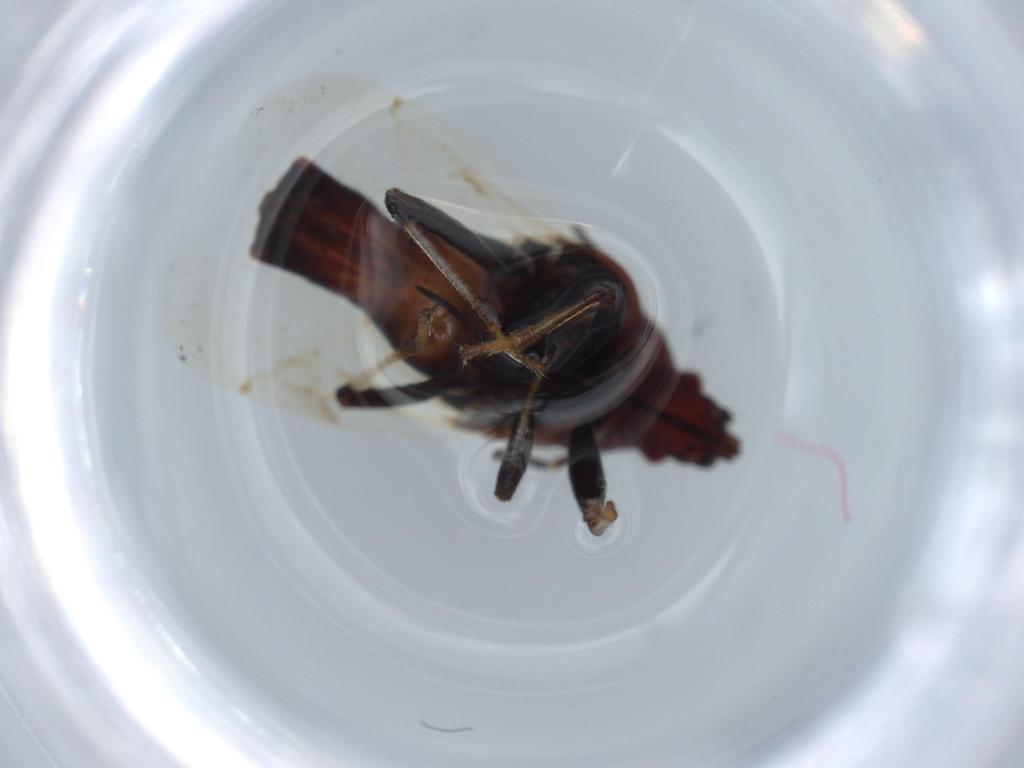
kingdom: Animalia
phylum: Arthropoda
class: Insecta
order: Hemiptera
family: Oxycarenidae
